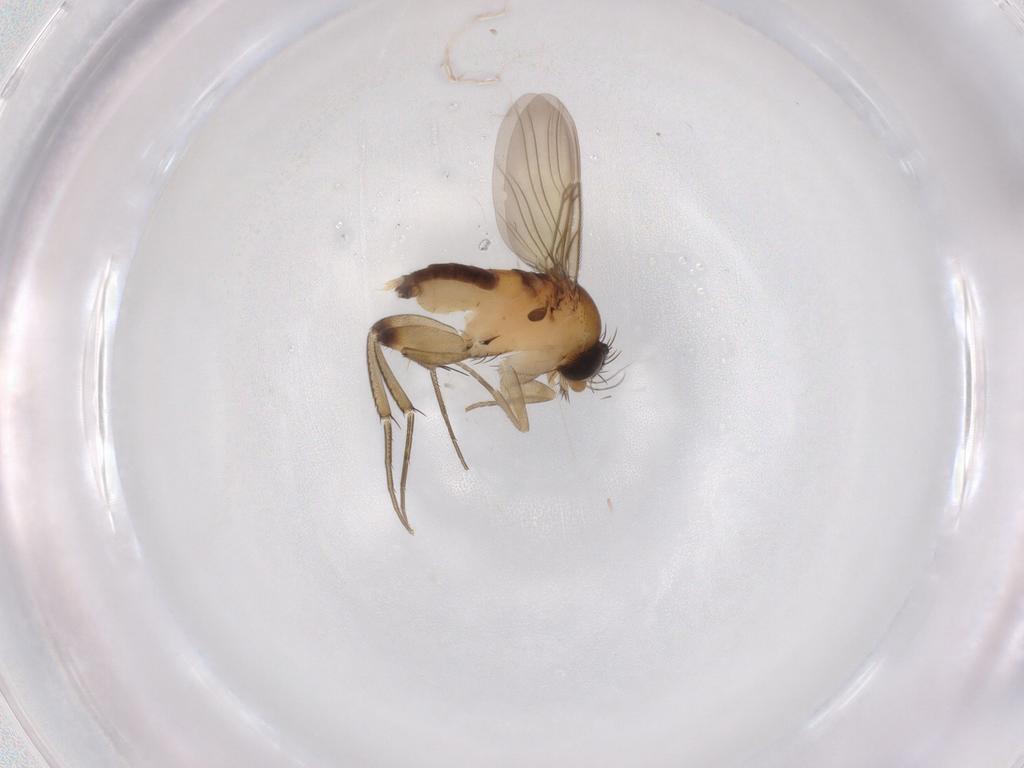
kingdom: Animalia
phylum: Arthropoda
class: Insecta
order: Diptera
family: Phoridae
